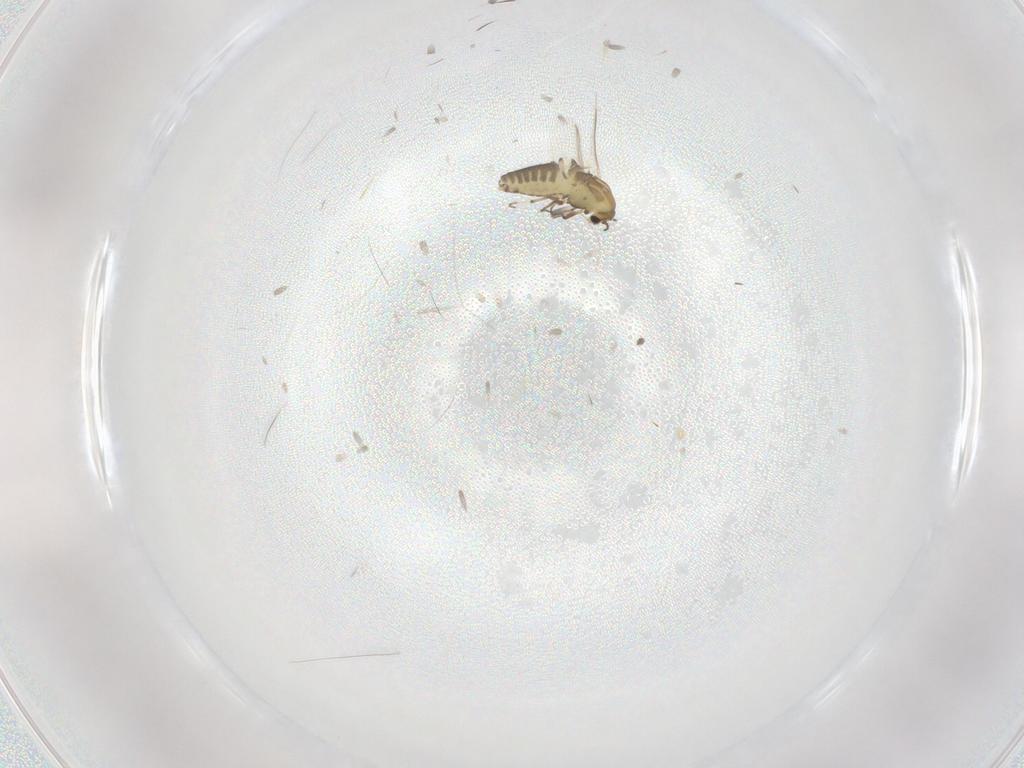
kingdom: Animalia
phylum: Arthropoda
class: Insecta
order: Diptera
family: Chironomidae
